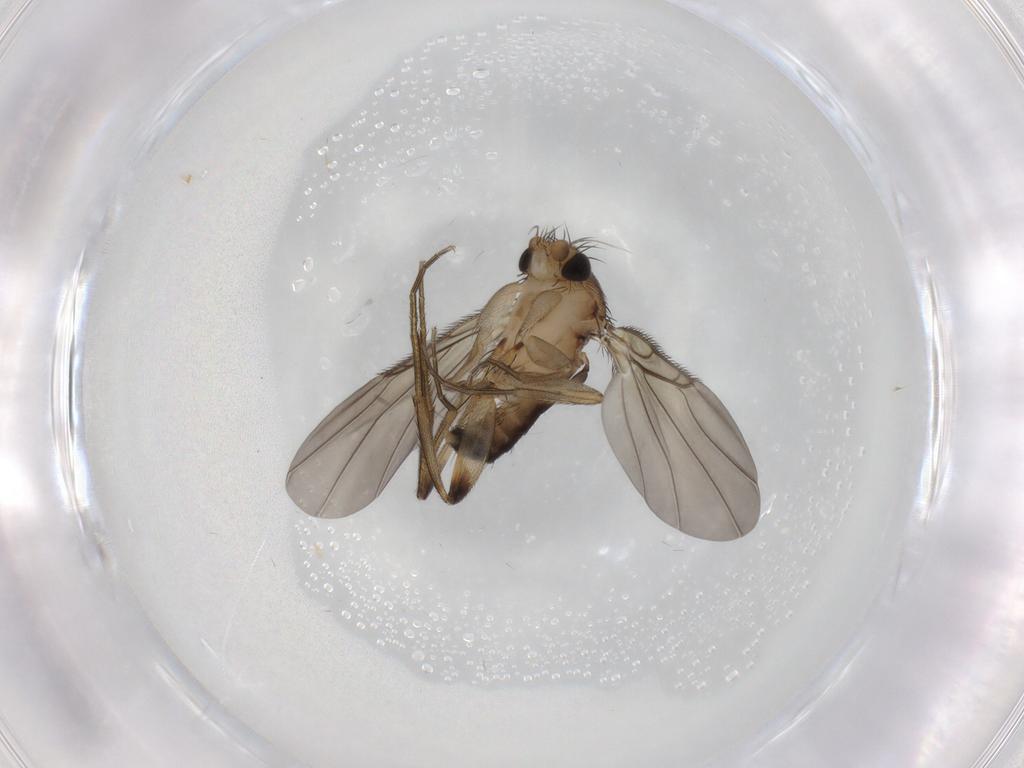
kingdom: Animalia
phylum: Arthropoda
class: Insecta
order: Diptera
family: Phoridae
